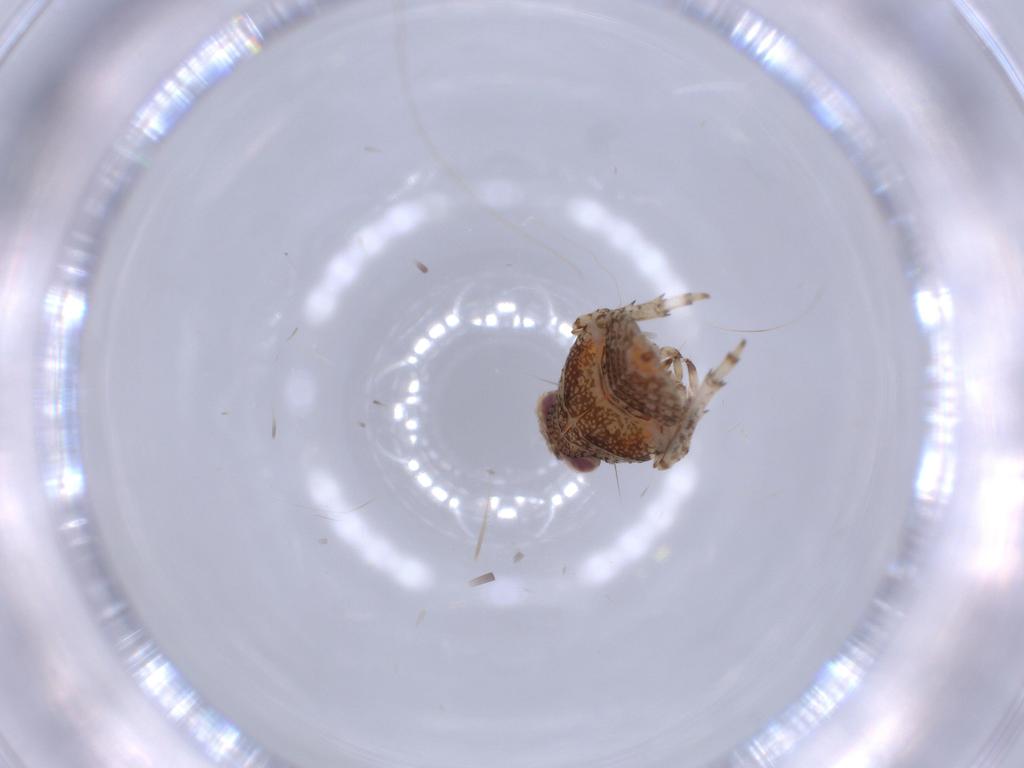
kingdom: Animalia
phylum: Arthropoda
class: Insecta
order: Hemiptera
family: Issidae
